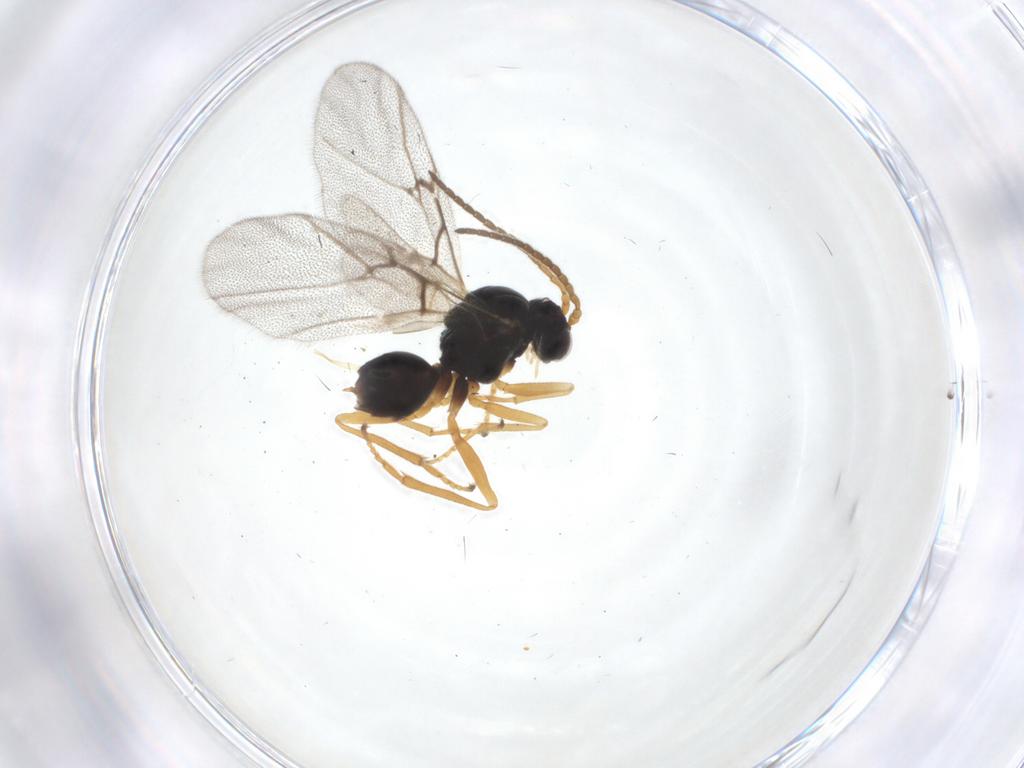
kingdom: Animalia
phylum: Arthropoda
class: Insecta
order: Hymenoptera
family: Cynipidae
